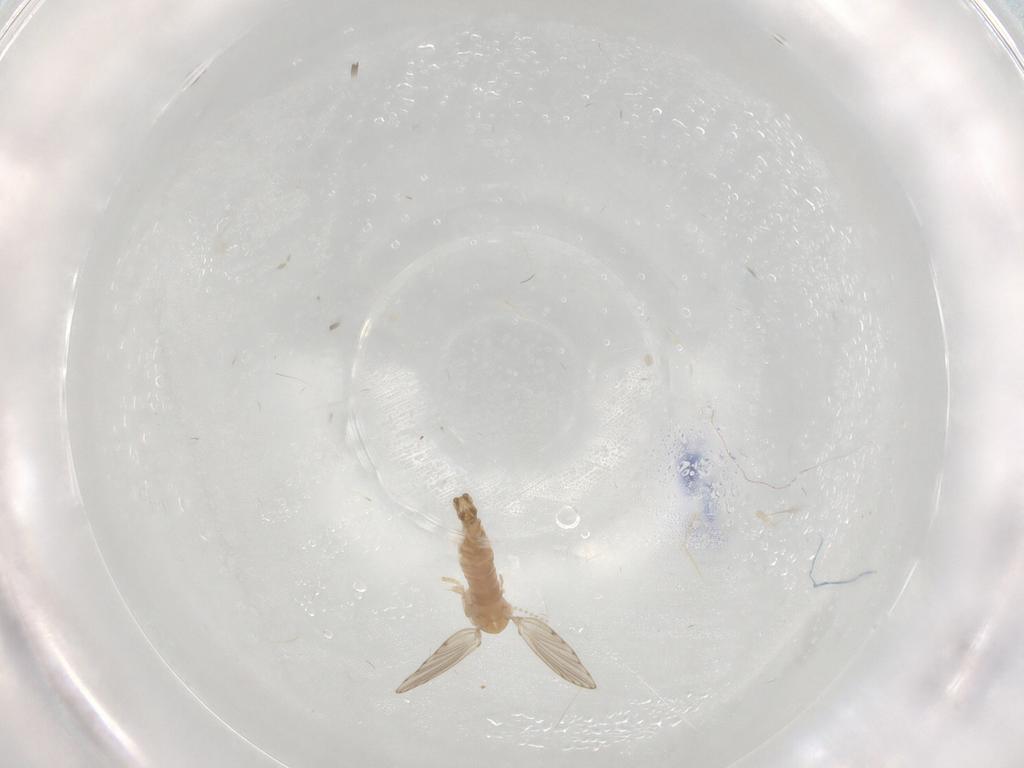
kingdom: Animalia
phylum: Arthropoda
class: Insecta
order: Diptera
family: Psychodidae
